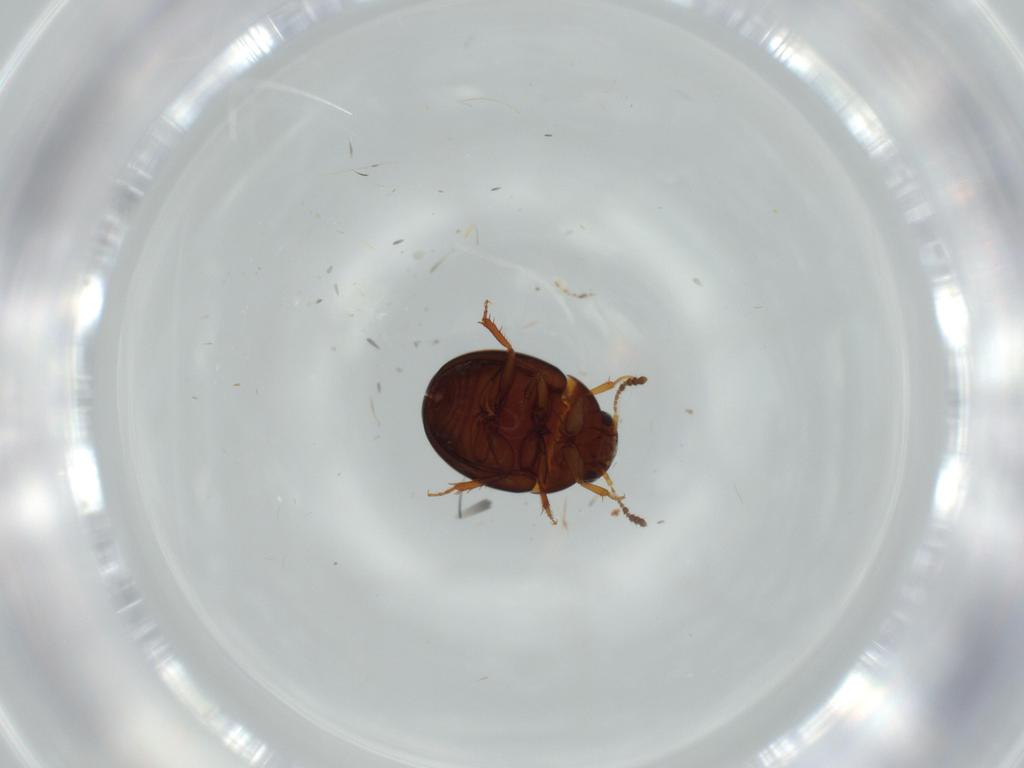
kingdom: Animalia
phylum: Arthropoda
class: Insecta
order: Coleoptera
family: Leiodidae
